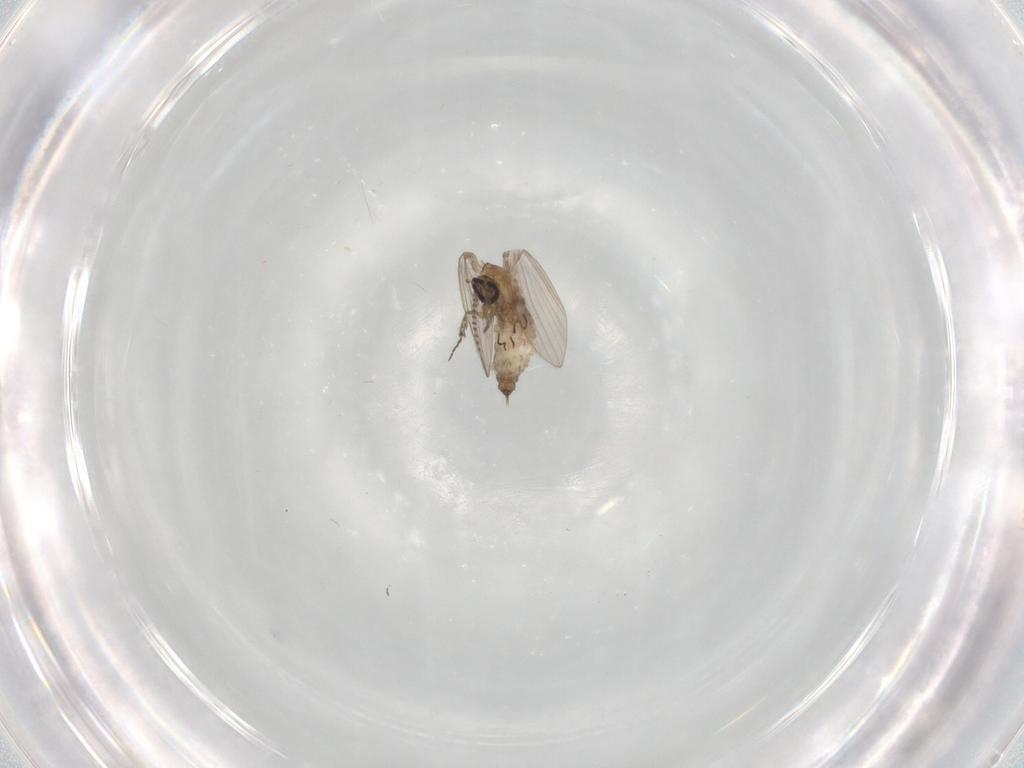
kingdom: Animalia
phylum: Arthropoda
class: Insecta
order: Diptera
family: Psychodidae
